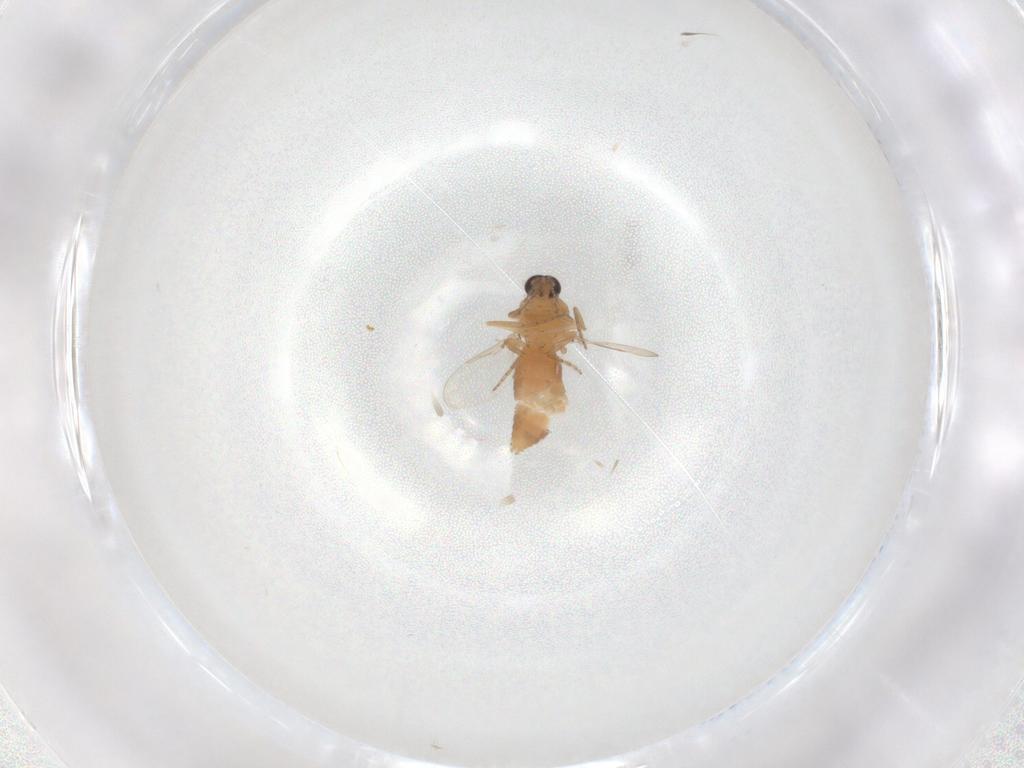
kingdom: Animalia
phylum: Arthropoda
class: Insecta
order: Diptera
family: Ceratopogonidae
